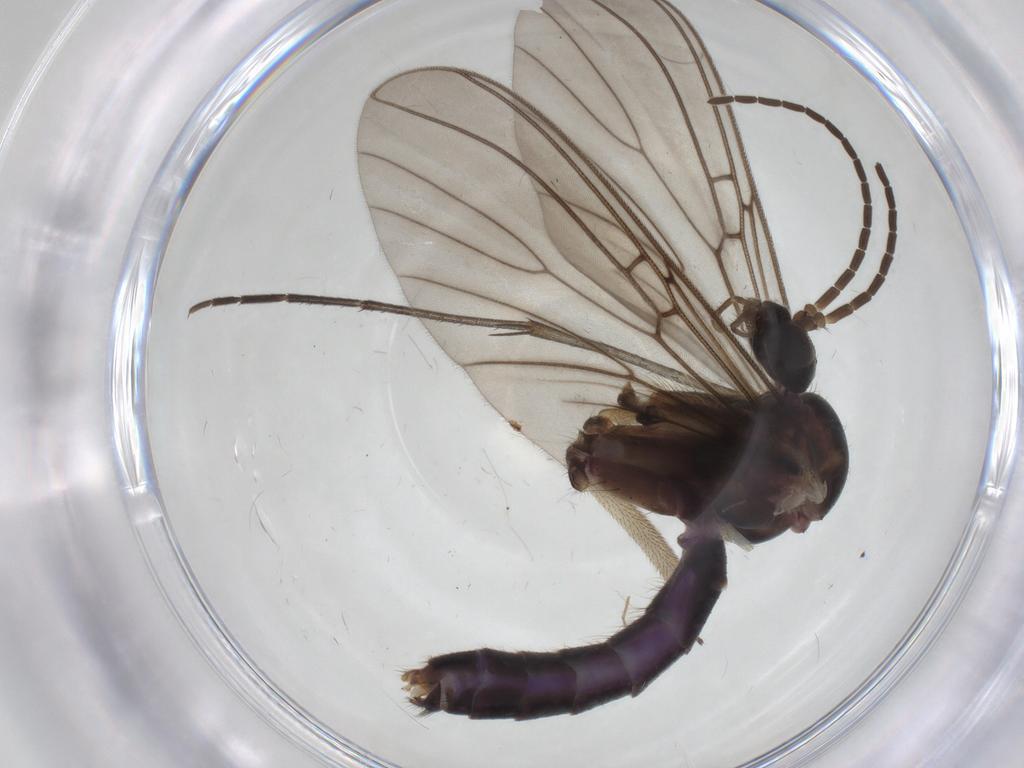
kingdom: Animalia
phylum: Arthropoda
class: Insecta
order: Diptera
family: Mycetophilidae
